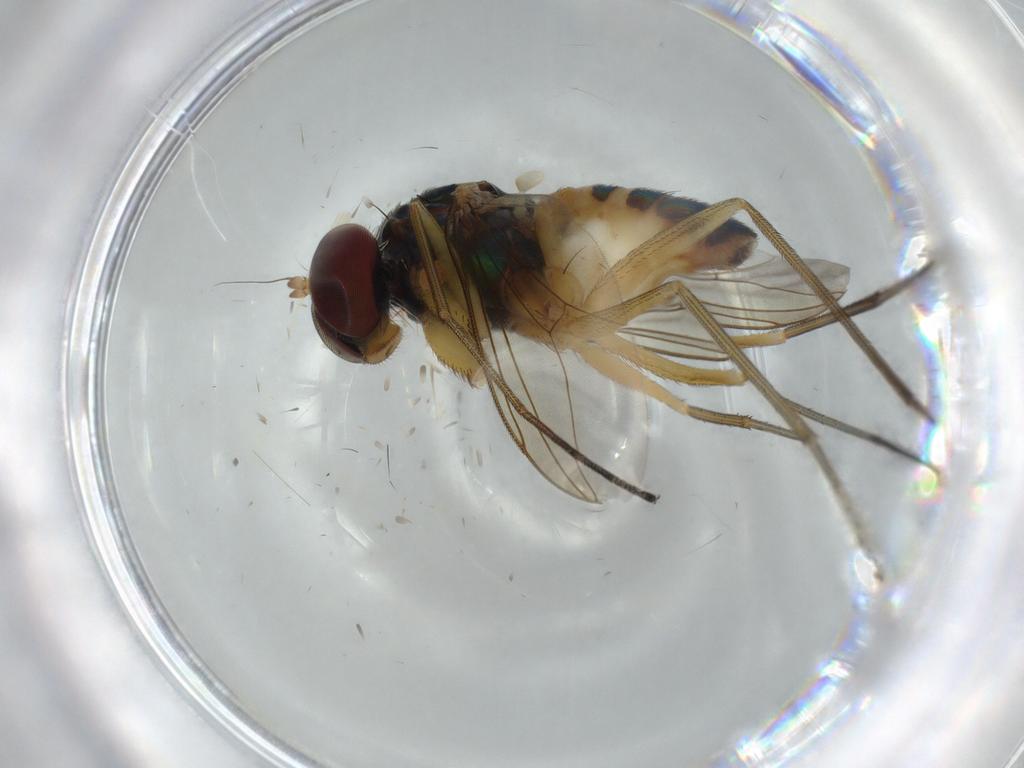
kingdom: Animalia
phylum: Arthropoda
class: Insecta
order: Diptera
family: Dolichopodidae
